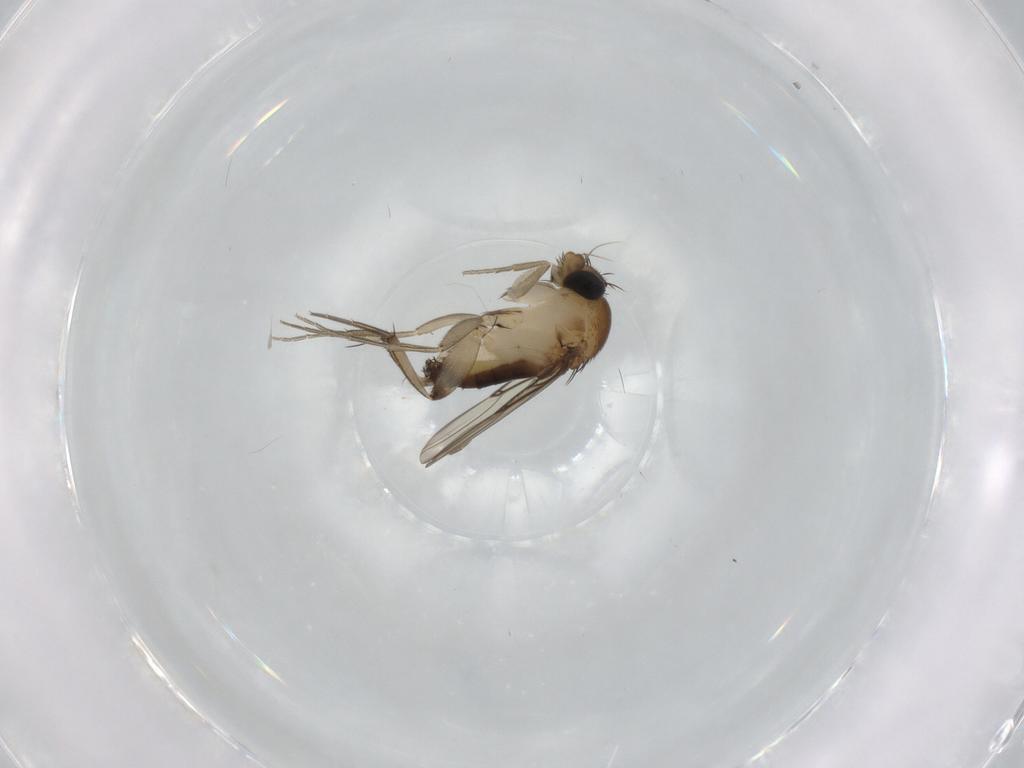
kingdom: Animalia
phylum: Arthropoda
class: Insecta
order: Diptera
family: Phoridae
